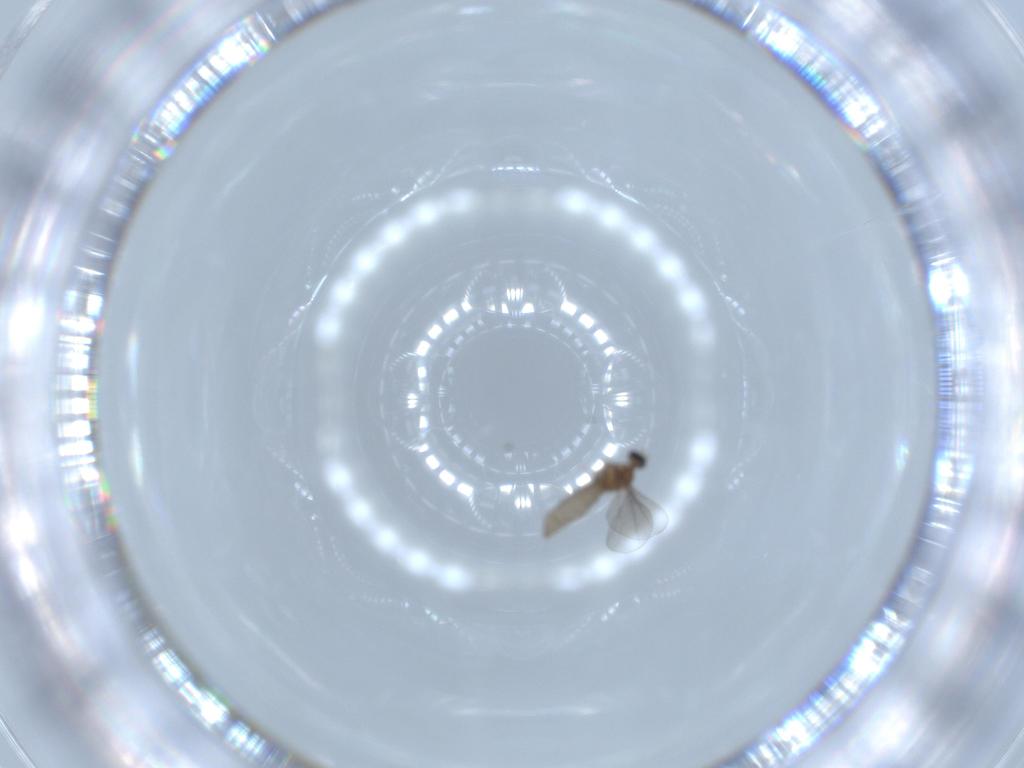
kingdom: Animalia
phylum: Arthropoda
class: Insecta
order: Diptera
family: Cecidomyiidae
